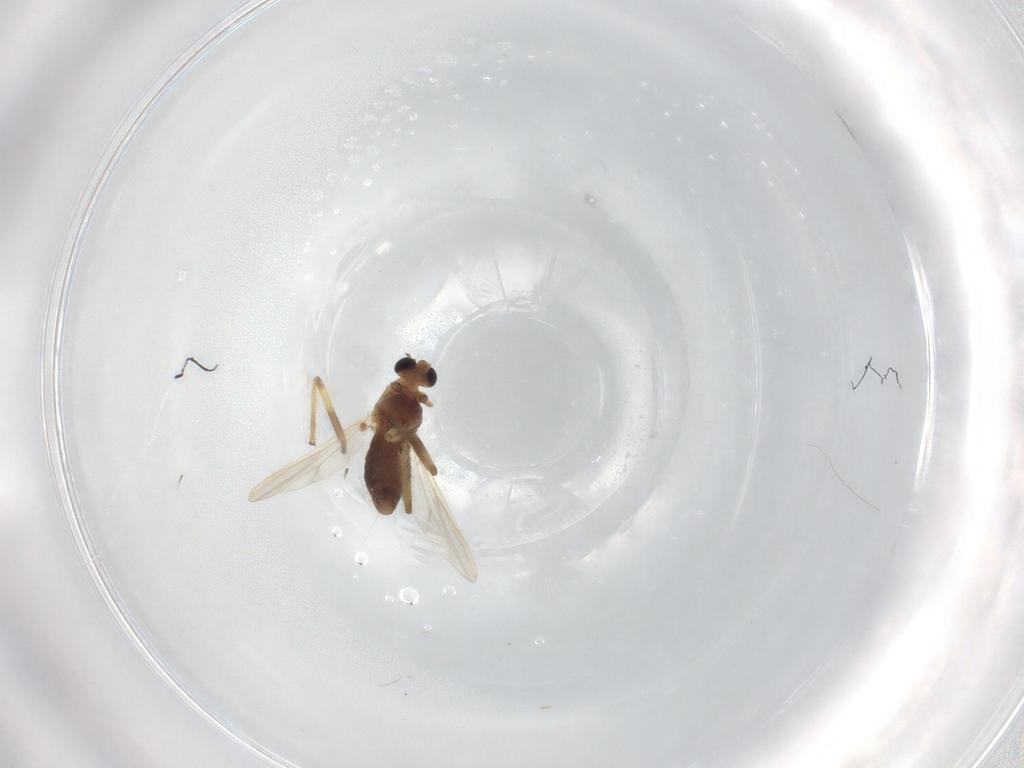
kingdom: Animalia
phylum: Arthropoda
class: Insecta
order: Diptera
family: Chironomidae
